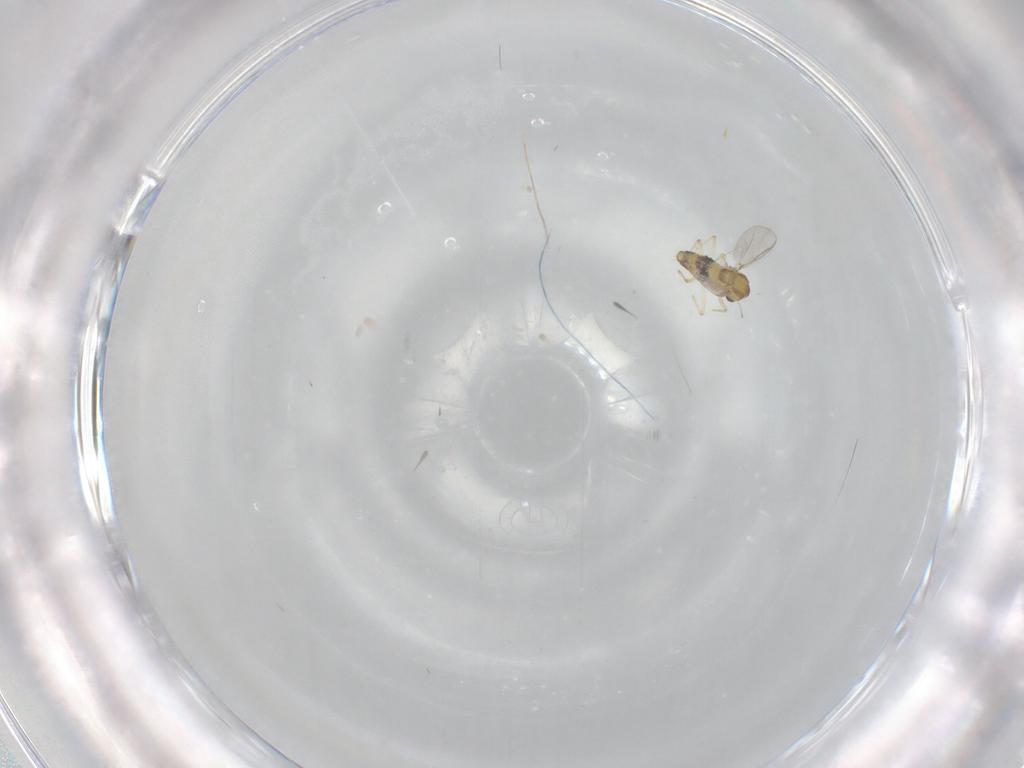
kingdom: Animalia
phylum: Arthropoda
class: Insecta
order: Diptera
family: Chironomidae
